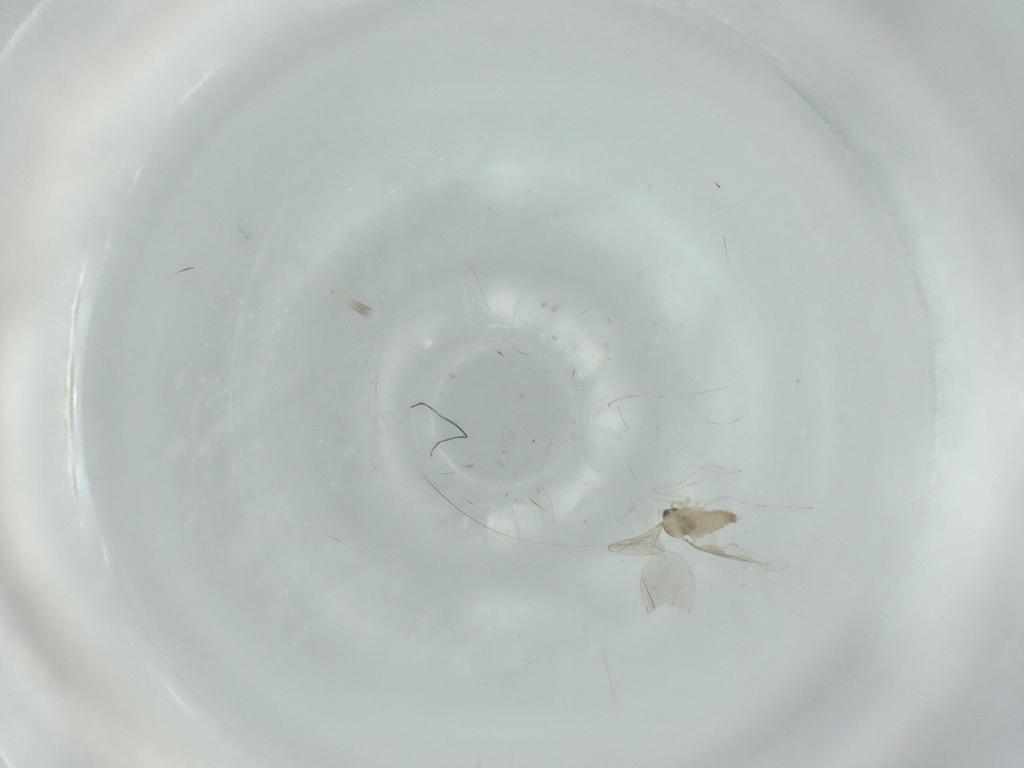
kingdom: Animalia
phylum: Arthropoda
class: Insecta
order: Diptera
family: Cecidomyiidae
